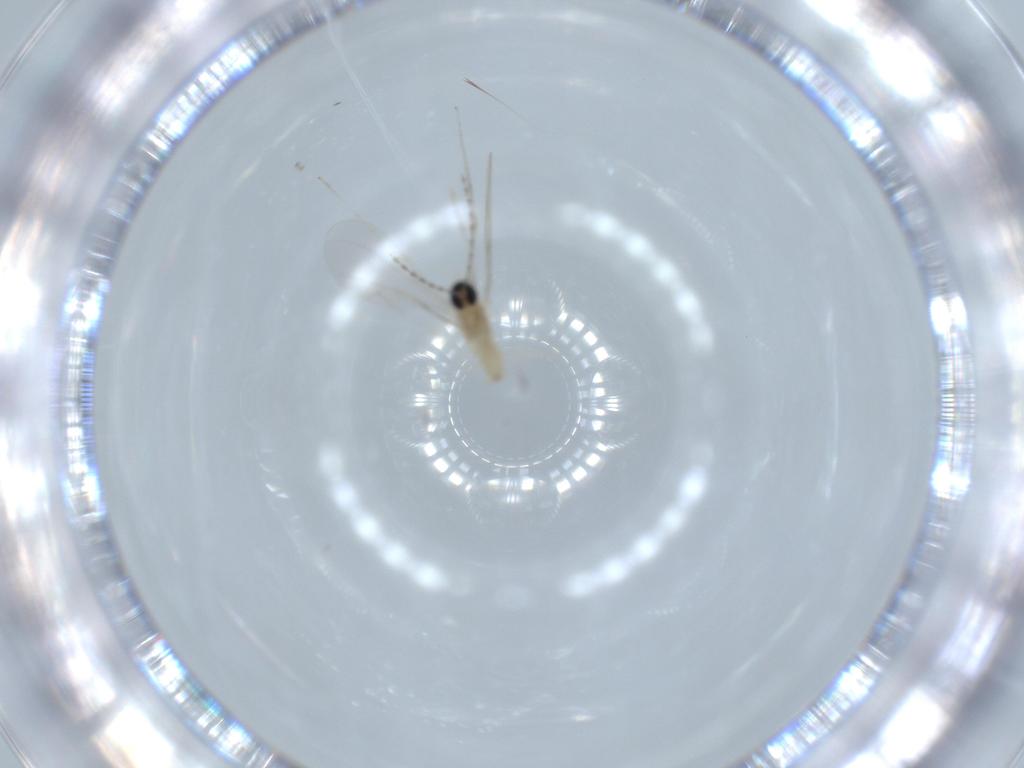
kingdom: Animalia
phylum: Arthropoda
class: Insecta
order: Diptera
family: Cecidomyiidae
